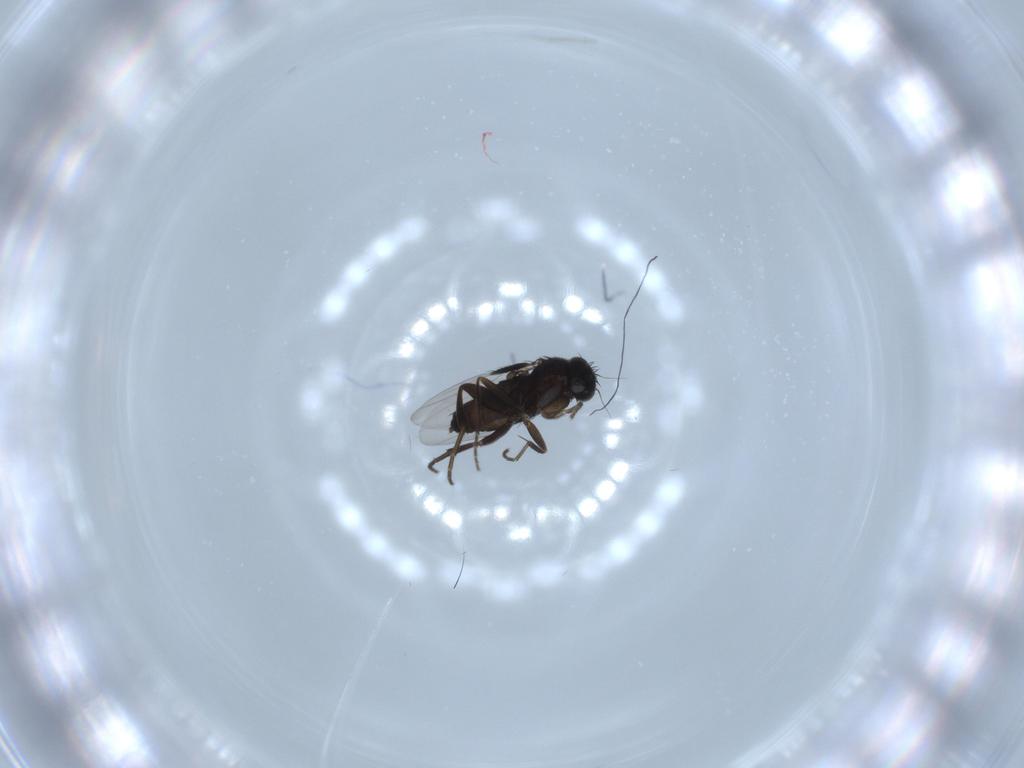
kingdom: Animalia
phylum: Arthropoda
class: Insecta
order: Diptera
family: Phoridae
